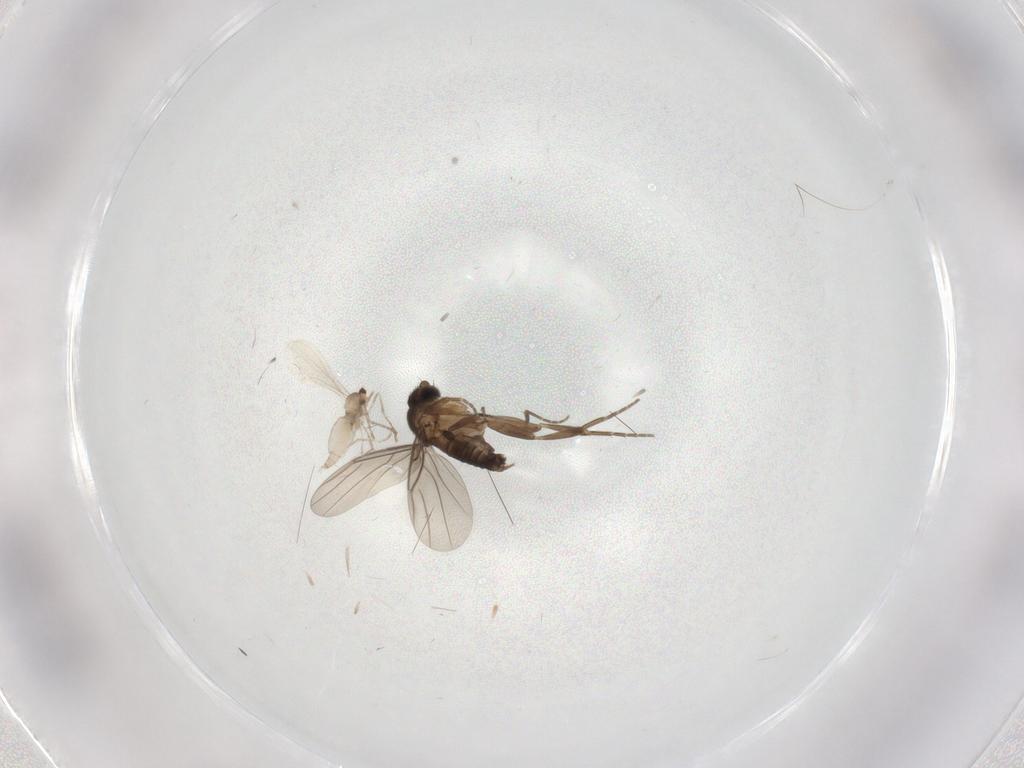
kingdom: Animalia
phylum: Arthropoda
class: Insecta
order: Diptera
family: Cecidomyiidae
